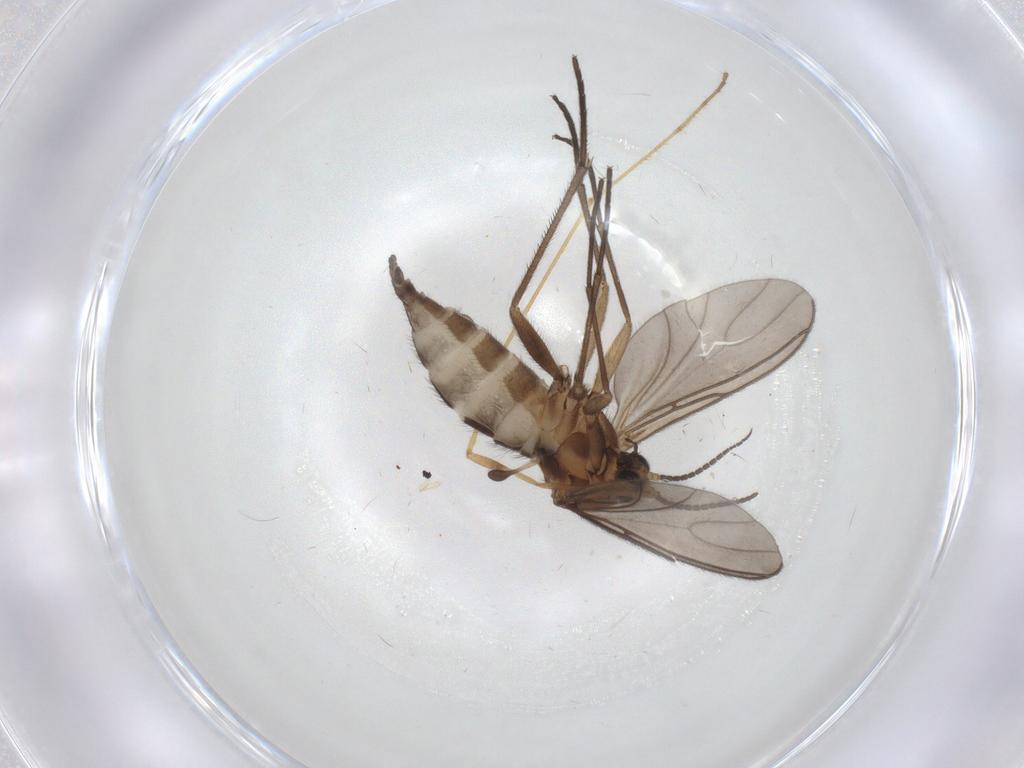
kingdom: Animalia
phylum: Arthropoda
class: Insecta
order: Diptera
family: Sciaridae
